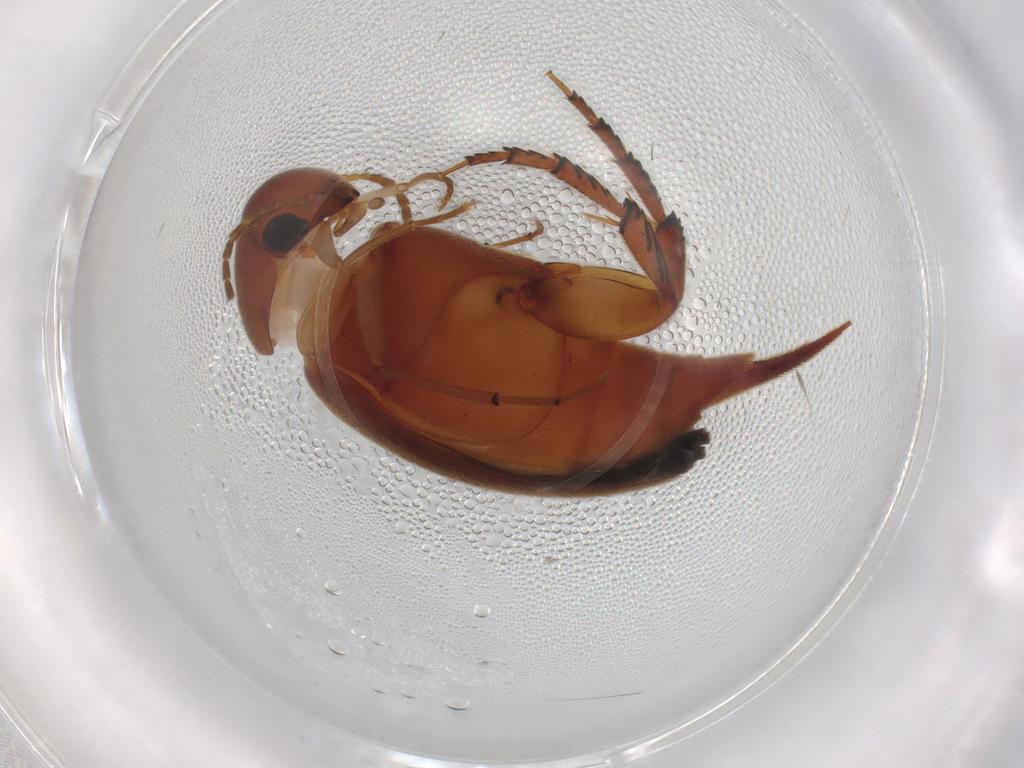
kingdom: Animalia
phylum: Arthropoda
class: Insecta
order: Coleoptera
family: Mordellidae
